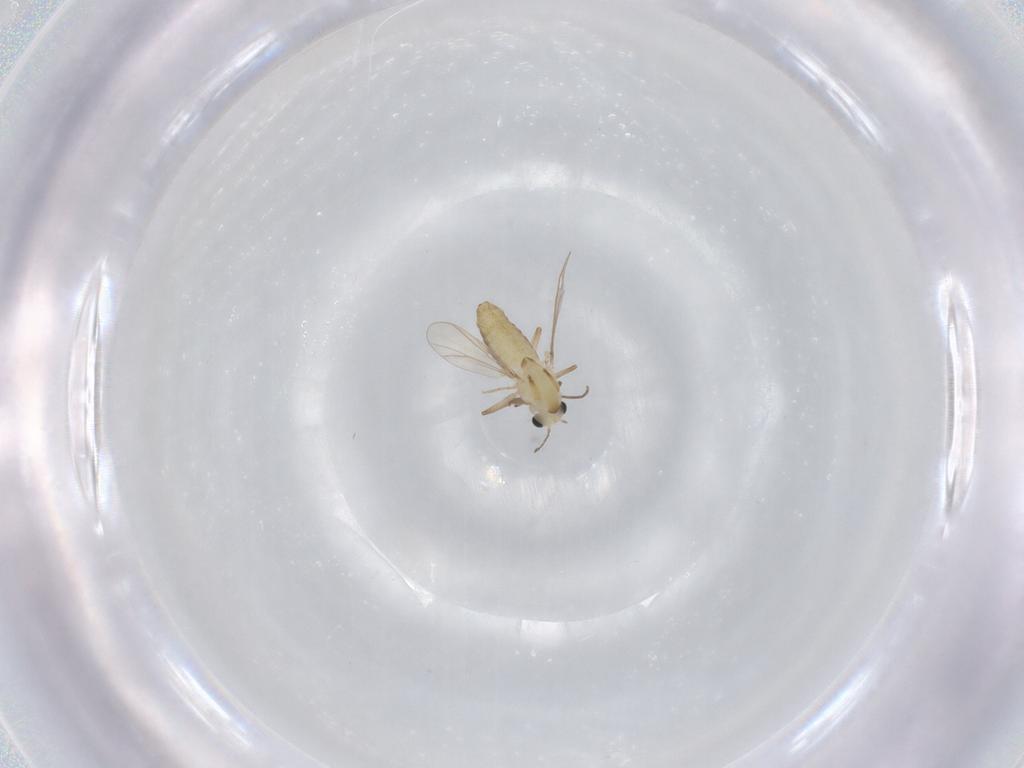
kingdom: Animalia
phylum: Arthropoda
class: Insecta
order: Diptera
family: Chironomidae
